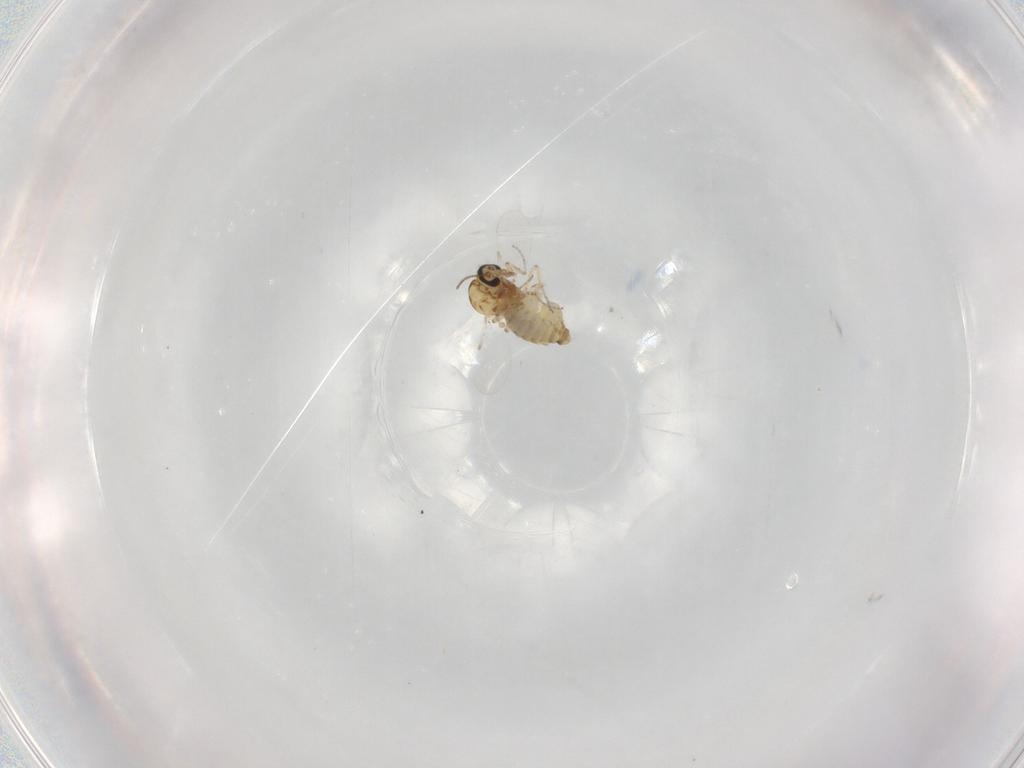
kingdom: Animalia
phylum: Arthropoda
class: Insecta
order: Diptera
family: Ceratopogonidae
